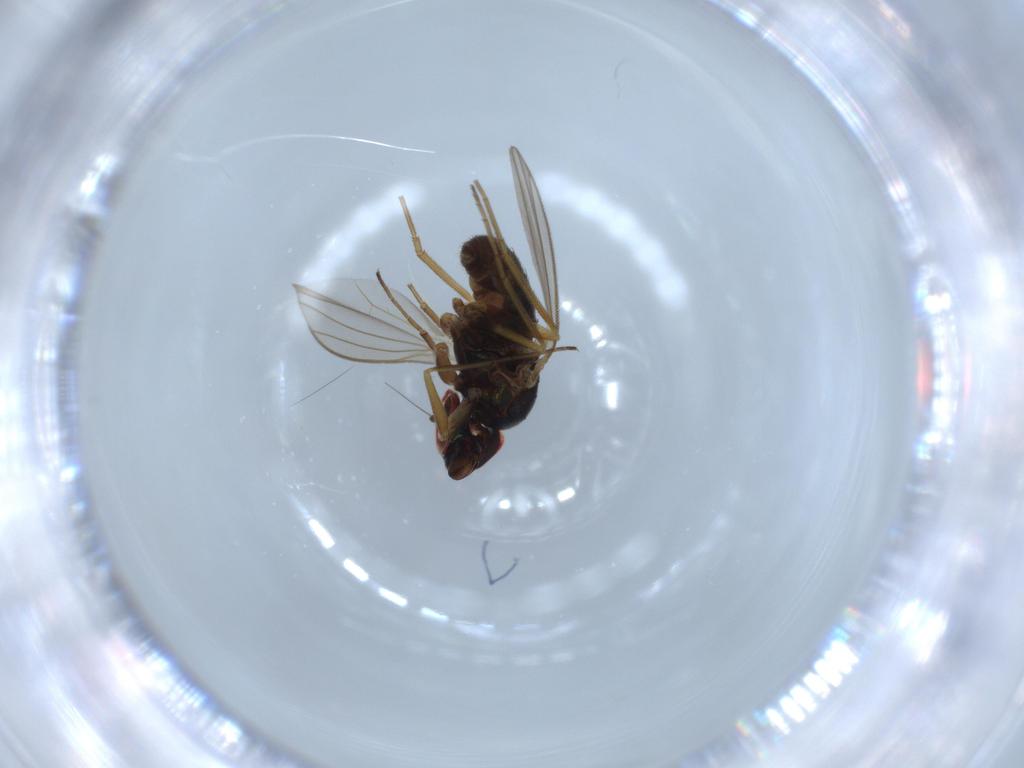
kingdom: Animalia
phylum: Arthropoda
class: Insecta
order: Diptera
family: Dolichopodidae
